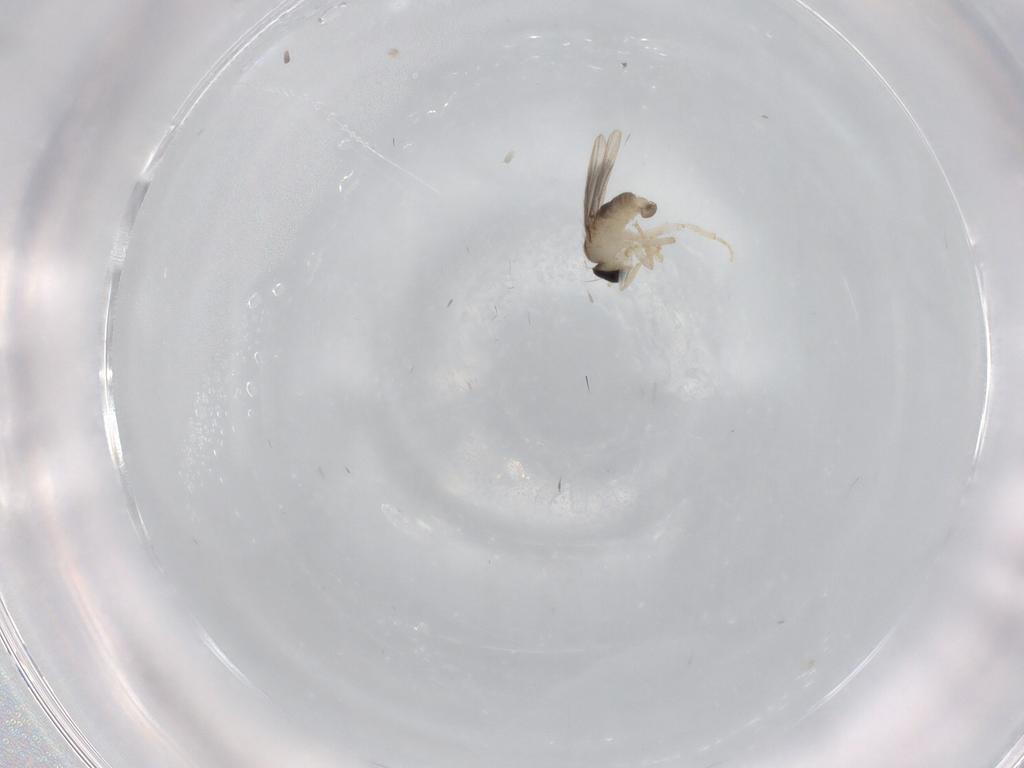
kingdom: Animalia
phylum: Arthropoda
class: Insecta
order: Diptera
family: Hybotidae
